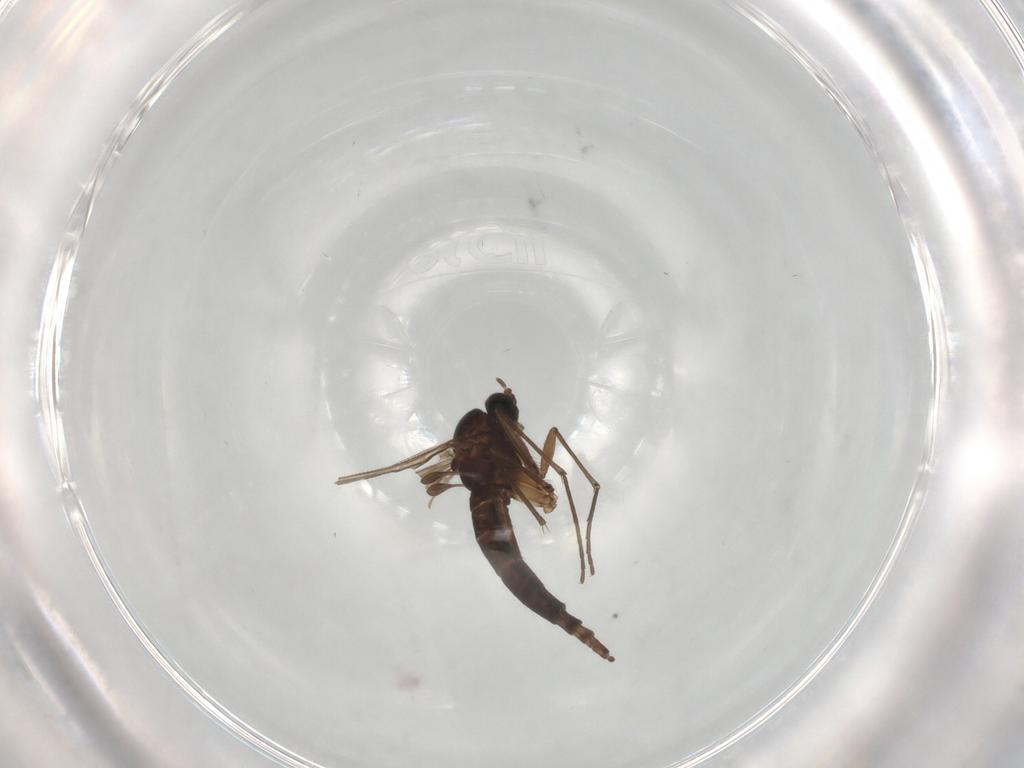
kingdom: Animalia
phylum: Arthropoda
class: Insecta
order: Diptera
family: Sciaridae
